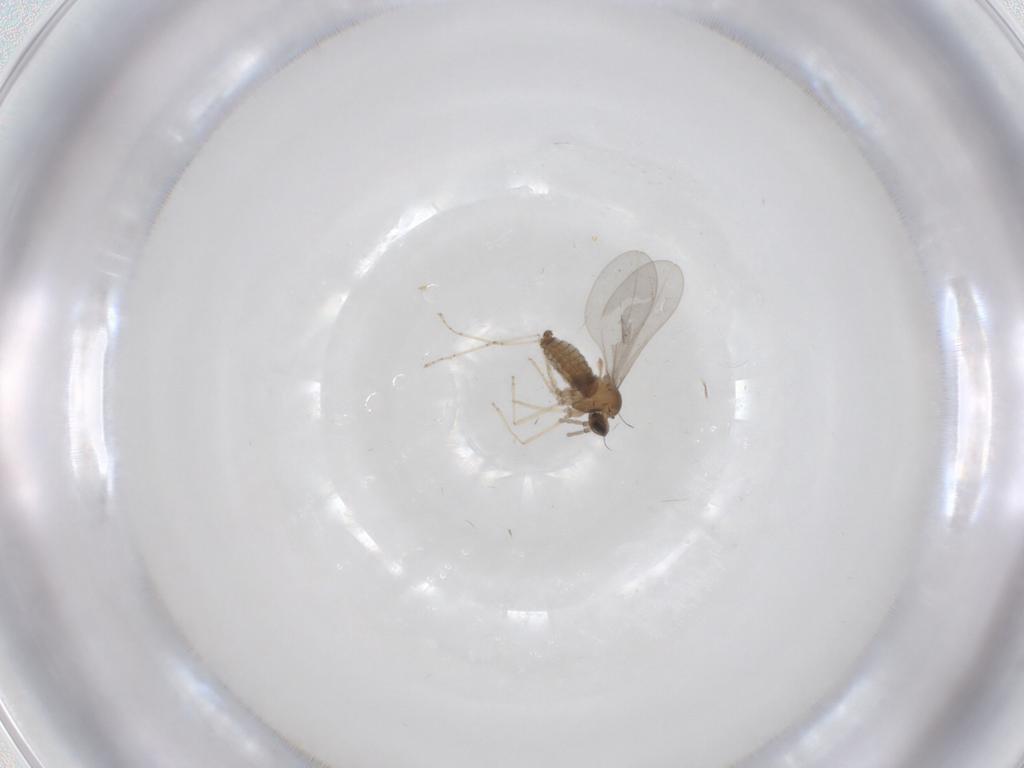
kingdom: Animalia
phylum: Arthropoda
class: Insecta
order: Diptera
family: Cecidomyiidae
